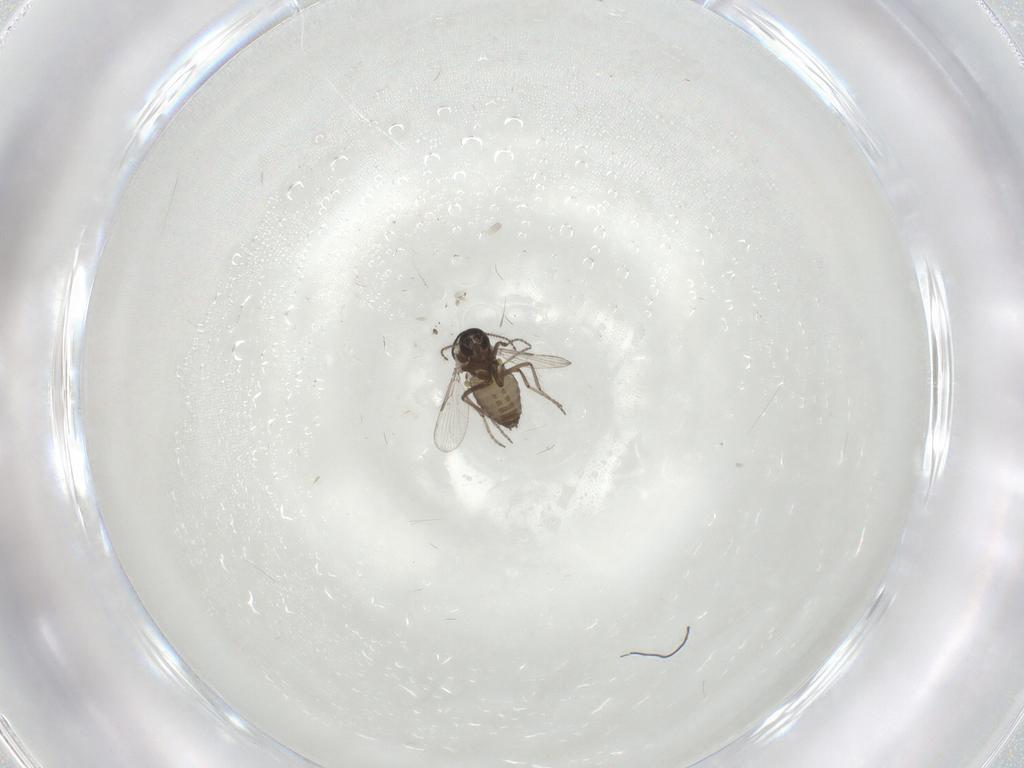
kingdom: Animalia
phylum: Arthropoda
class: Insecta
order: Diptera
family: Ceratopogonidae
